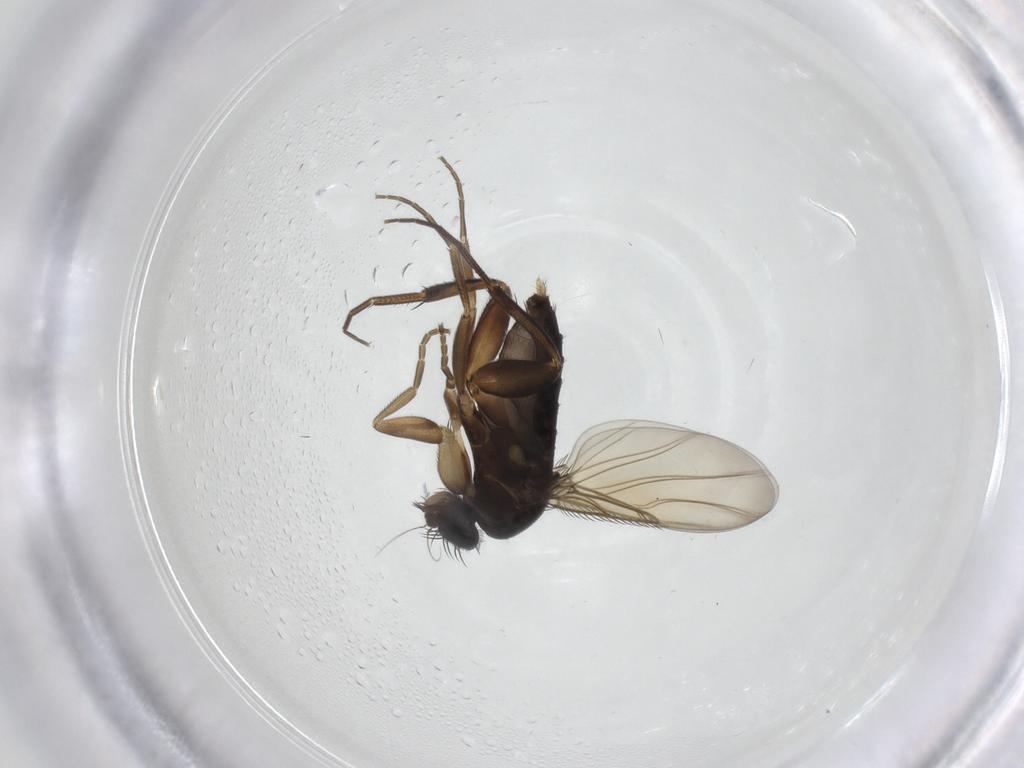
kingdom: Animalia
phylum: Arthropoda
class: Insecta
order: Diptera
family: Phoridae
